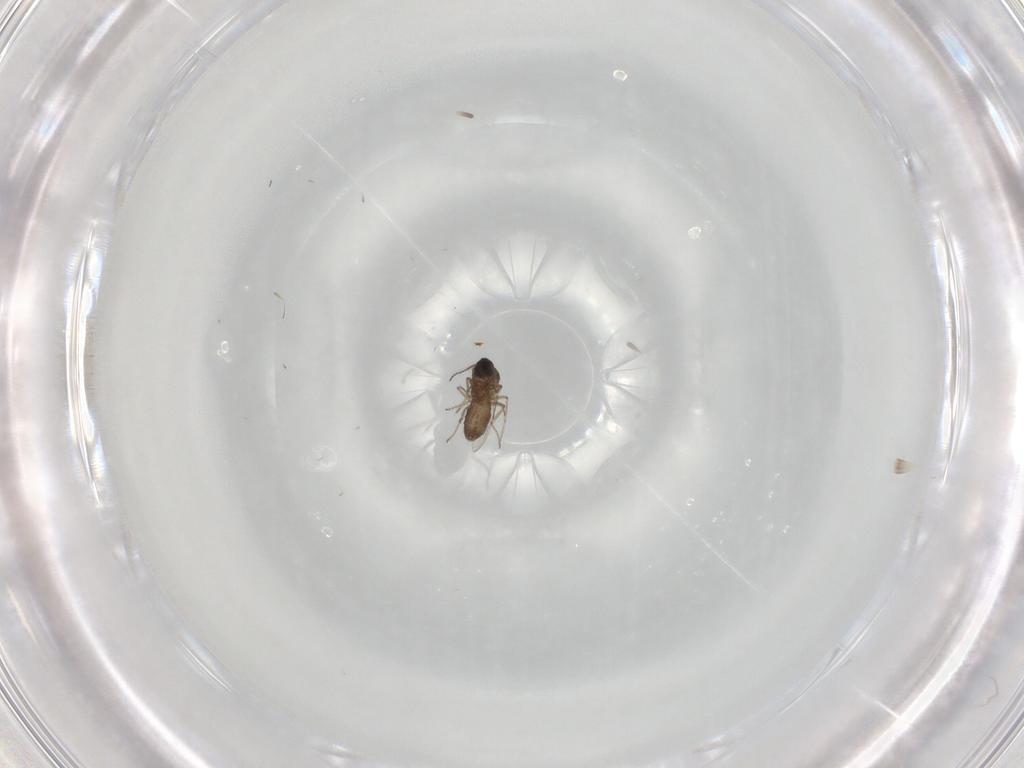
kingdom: Animalia
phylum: Arthropoda
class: Insecta
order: Diptera
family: Ceratopogonidae
